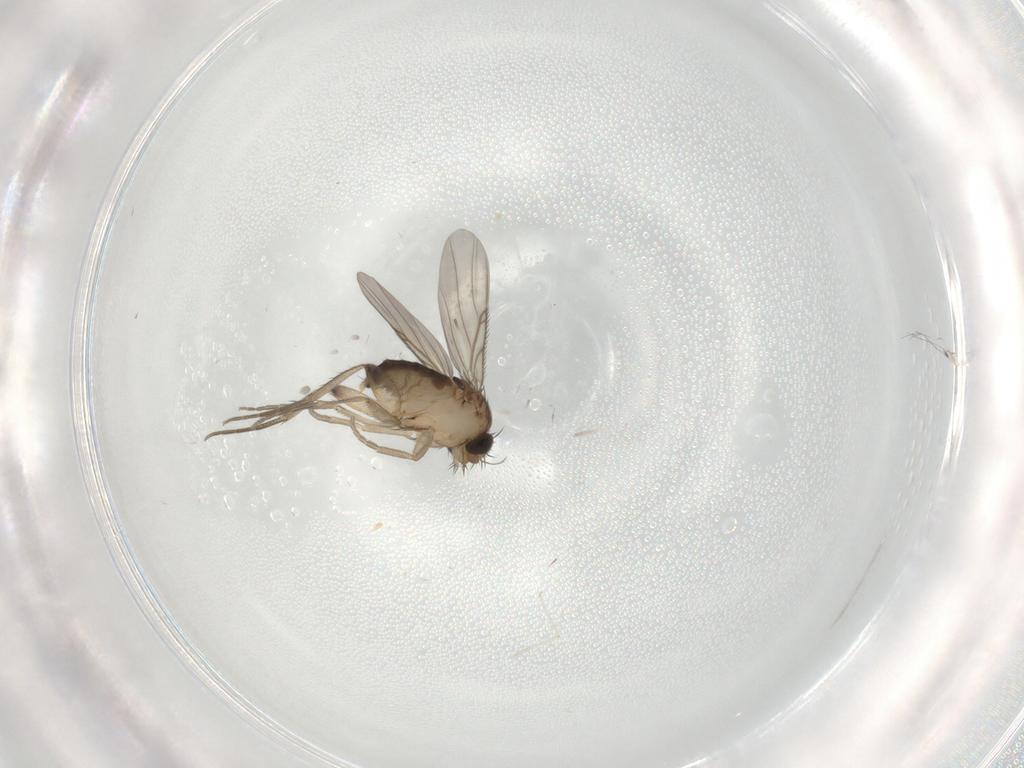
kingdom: Animalia
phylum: Arthropoda
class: Insecta
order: Diptera
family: Phoridae
